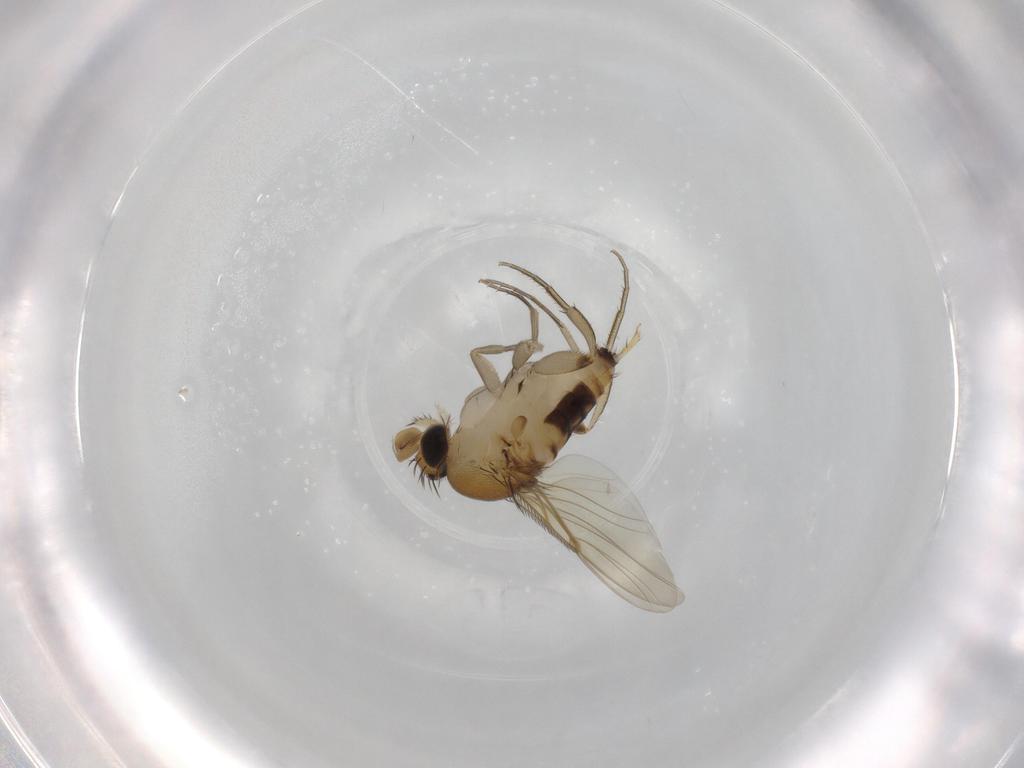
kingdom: Animalia
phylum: Arthropoda
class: Insecta
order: Diptera
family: Phoridae
